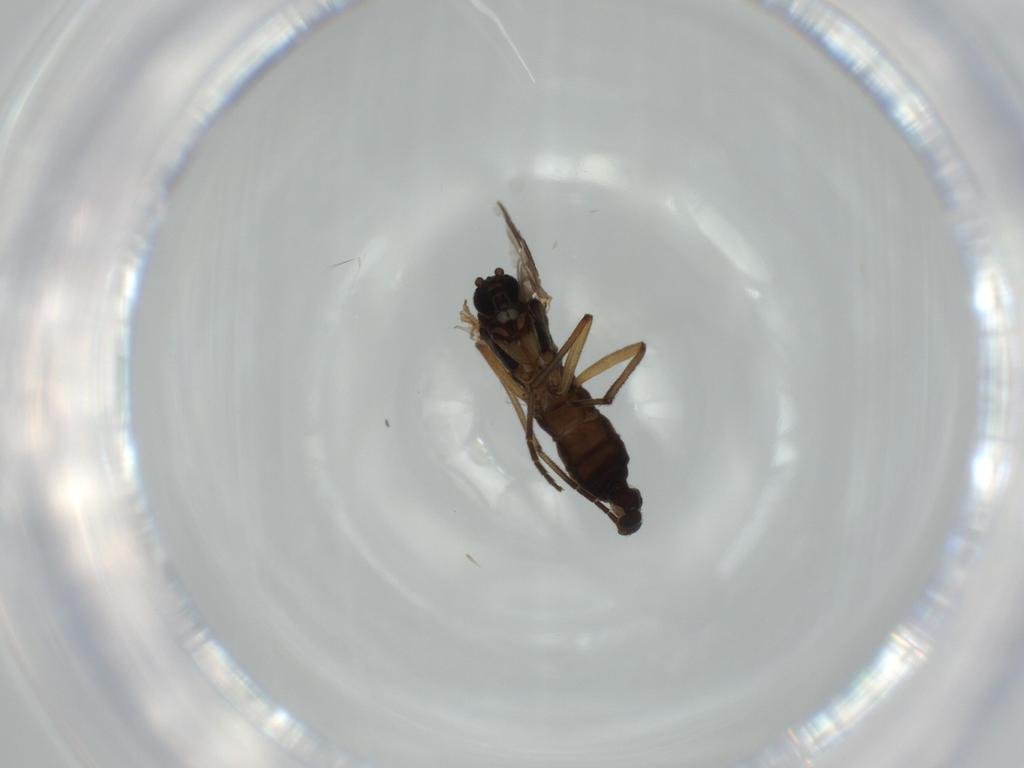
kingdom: Animalia
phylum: Arthropoda
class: Insecta
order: Diptera
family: Sciaridae
